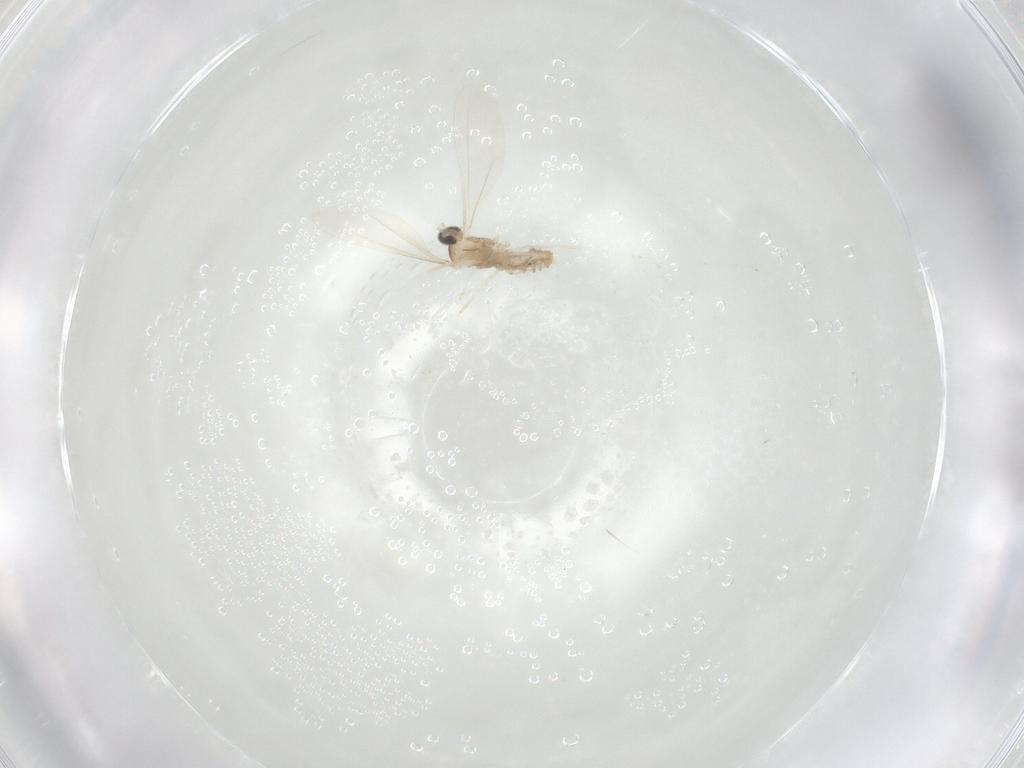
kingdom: Animalia
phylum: Arthropoda
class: Insecta
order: Diptera
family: Cecidomyiidae
